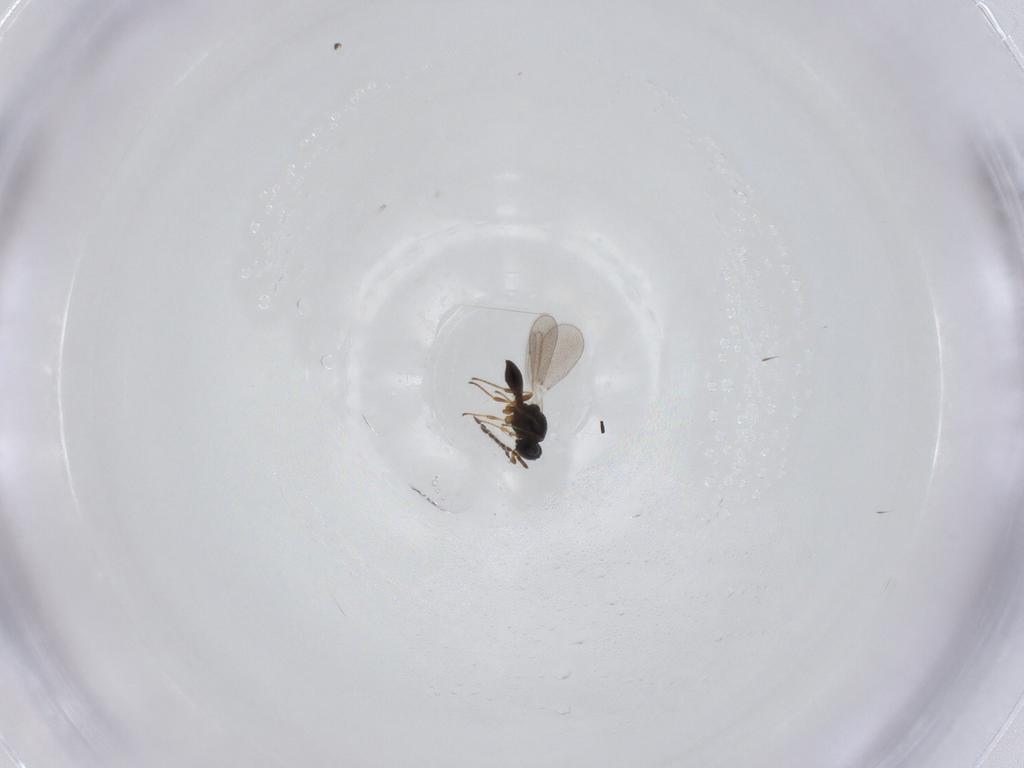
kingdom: Animalia
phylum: Arthropoda
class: Insecta
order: Hymenoptera
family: Platygastridae
